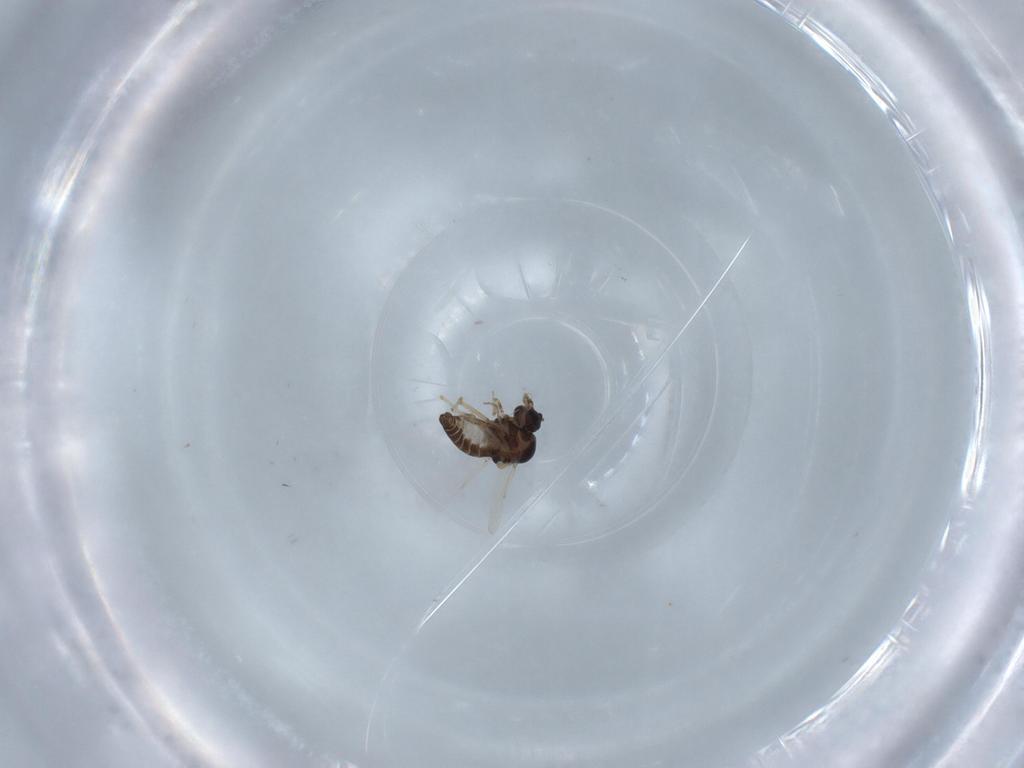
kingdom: Animalia
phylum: Arthropoda
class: Insecta
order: Diptera
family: Ceratopogonidae
